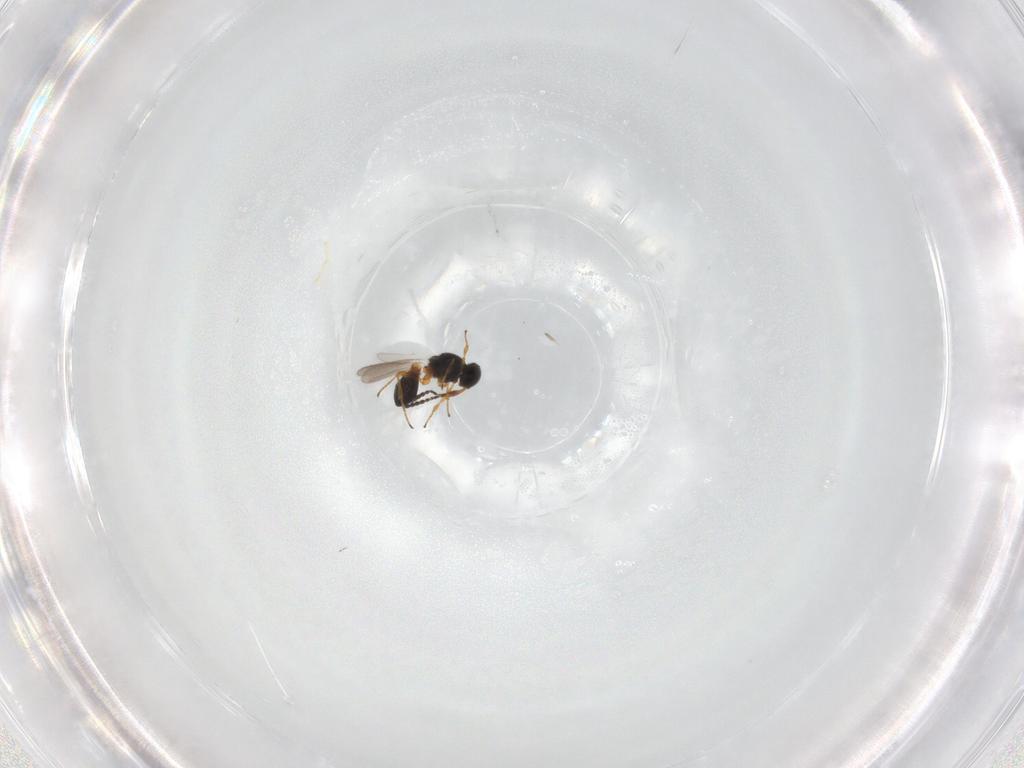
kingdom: Animalia
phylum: Arthropoda
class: Insecta
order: Hymenoptera
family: Platygastridae
